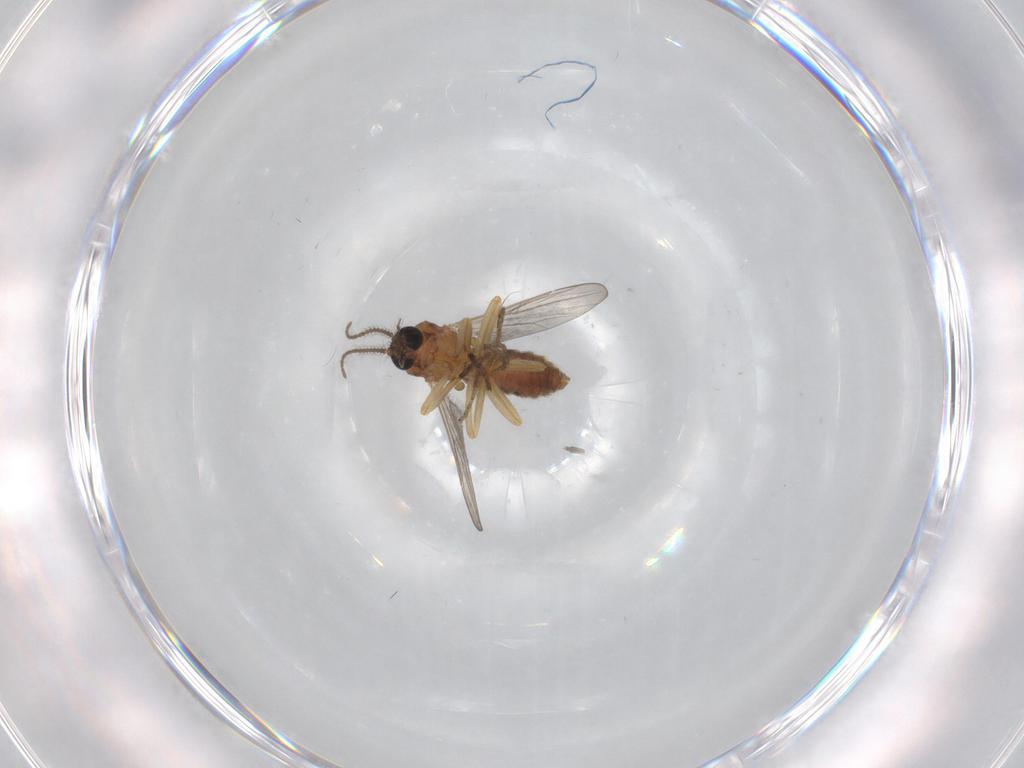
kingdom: Animalia
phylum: Arthropoda
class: Insecta
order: Diptera
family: Ceratopogonidae
